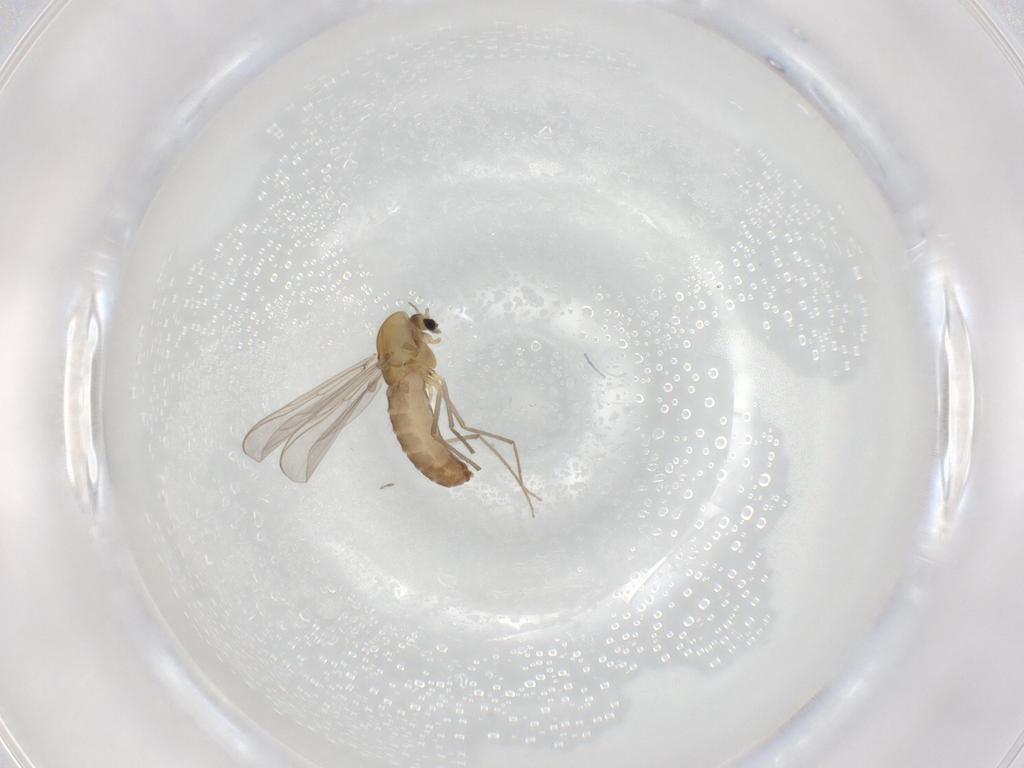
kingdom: Animalia
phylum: Arthropoda
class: Insecta
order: Diptera
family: Chironomidae
